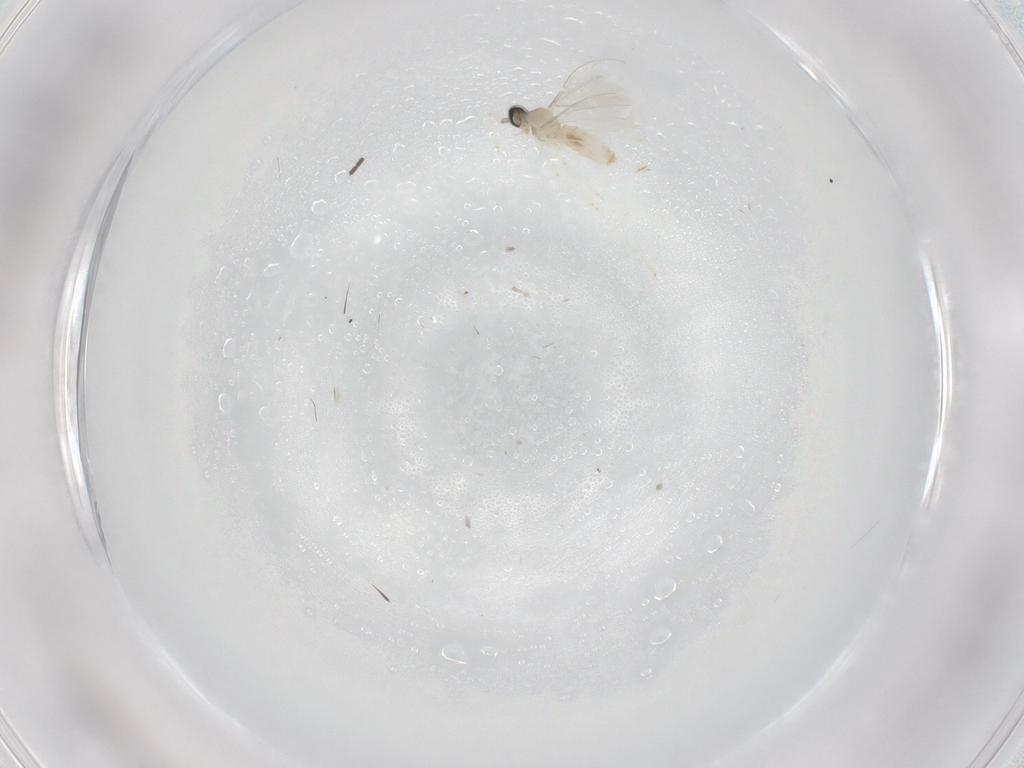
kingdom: Animalia
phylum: Arthropoda
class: Insecta
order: Diptera
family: Sciaridae
